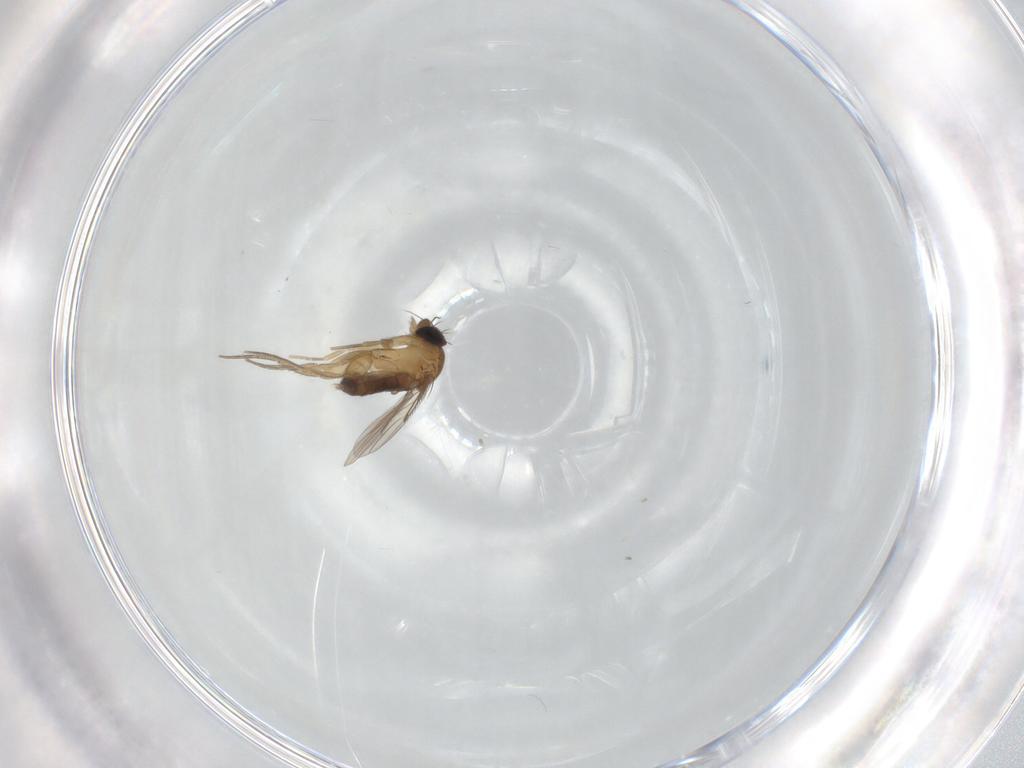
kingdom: Animalia
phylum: Arthropoda
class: Insecta
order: Diptera
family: Phoridae
